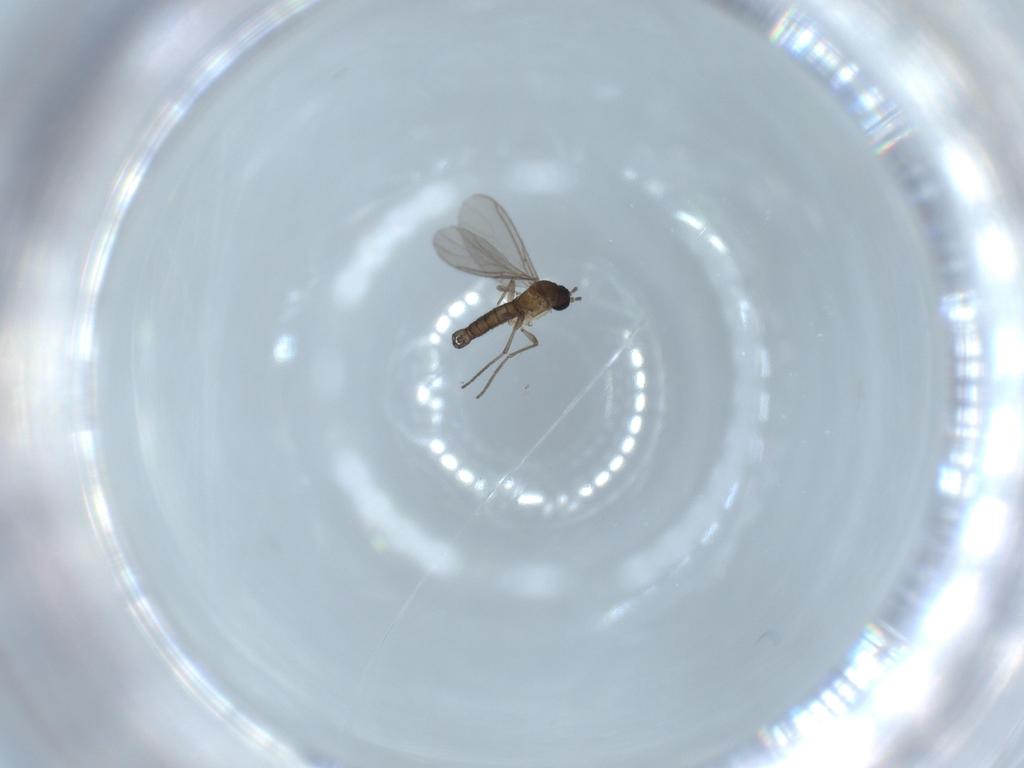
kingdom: Animalia
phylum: Arthropoda
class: Insecta
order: Diptera
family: Sciaridae
